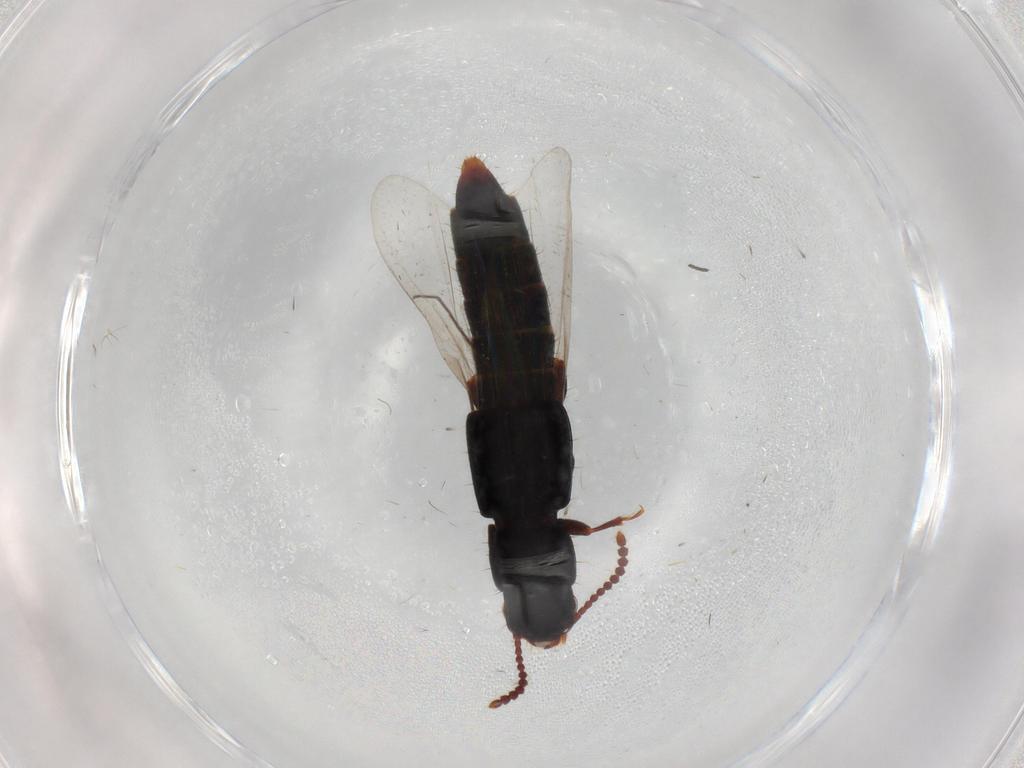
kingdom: Animalia
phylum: Arthropoda
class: Insecta
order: Coleoptera
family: Staphylinidae
